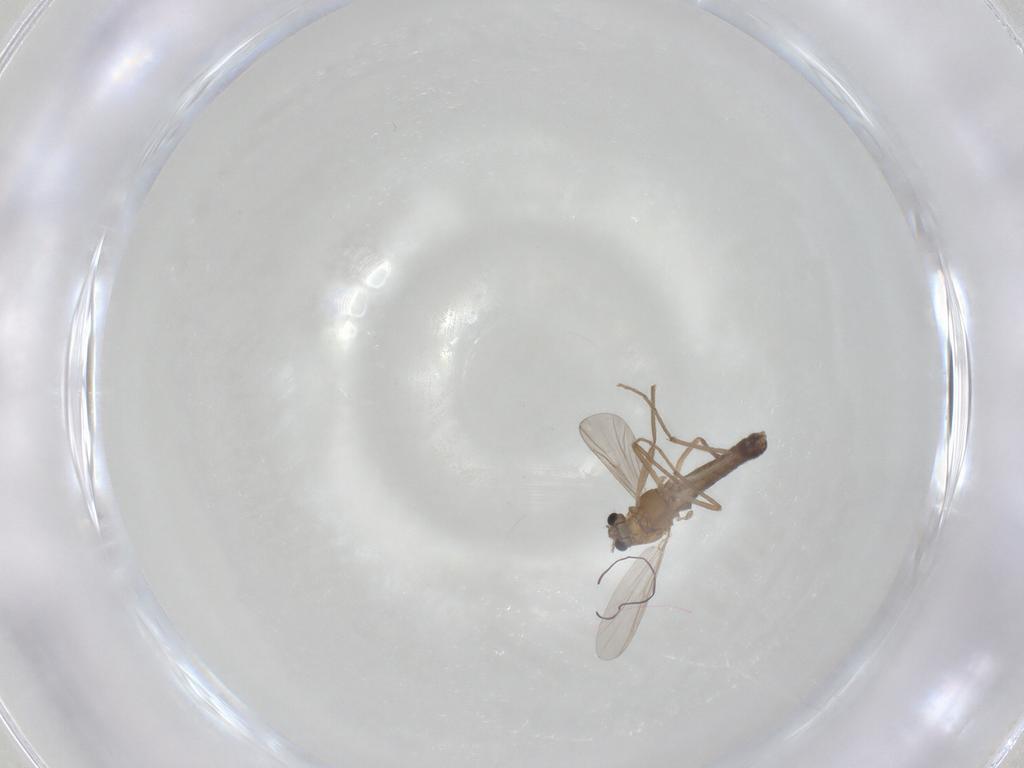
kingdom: Animalia
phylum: Arthropoda
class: Insecta
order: Diptera
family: Chironomidae
